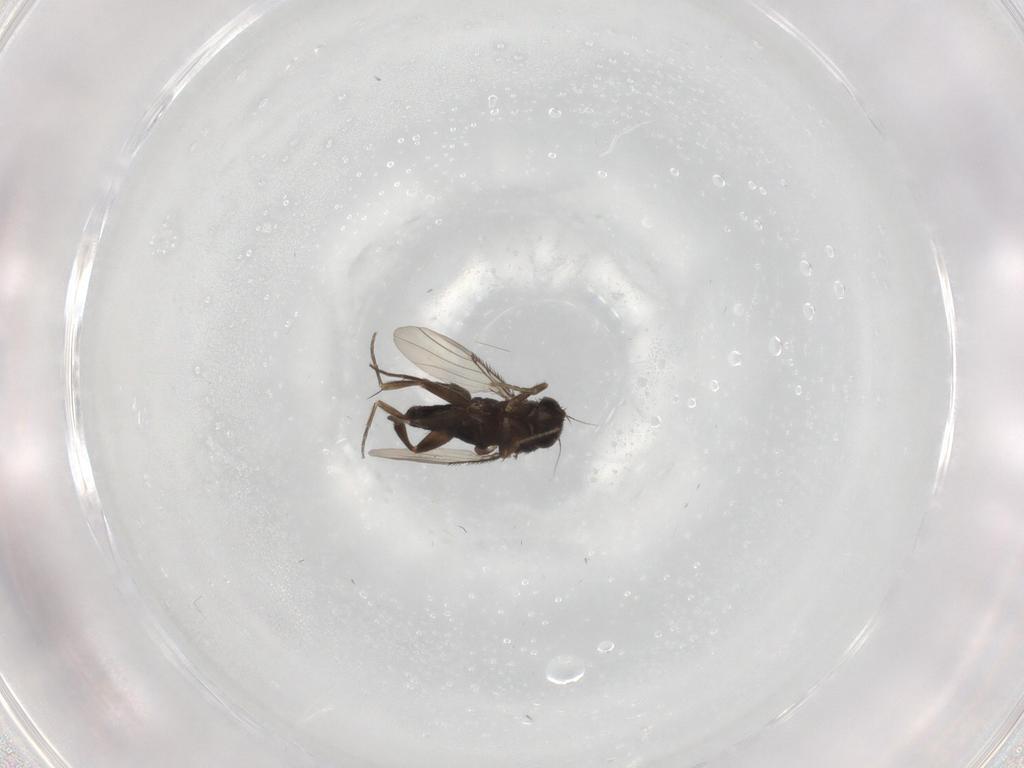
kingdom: Animalia
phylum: Arthropoda
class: Insecta
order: Diptera
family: Phoridae
